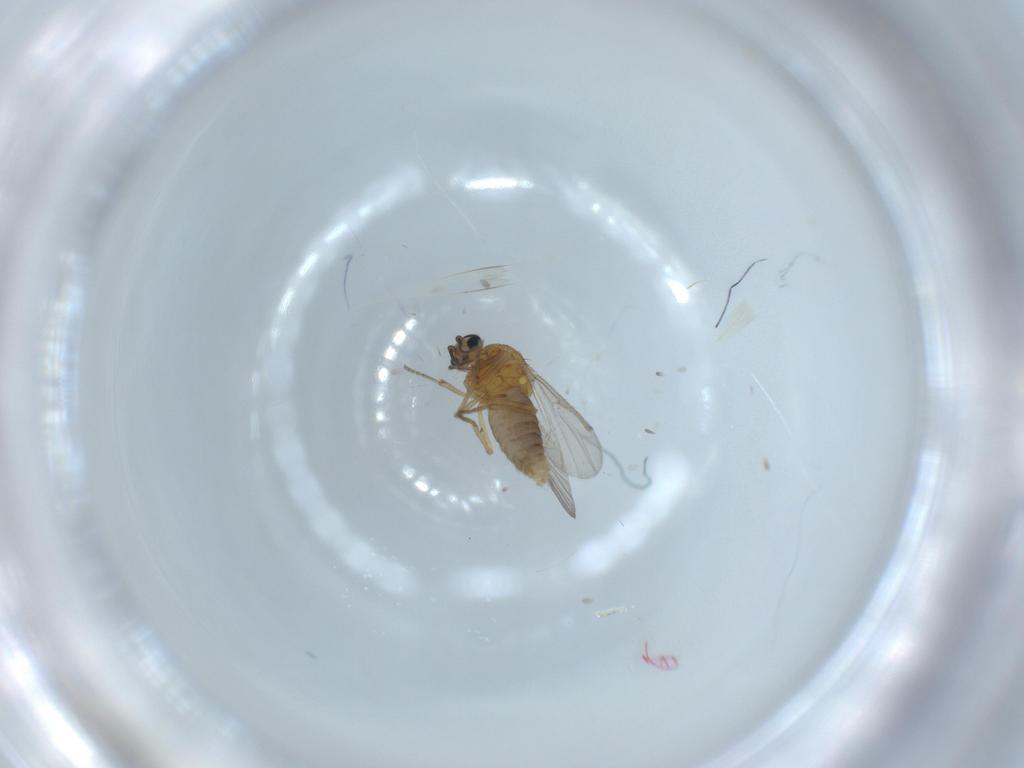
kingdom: Animalia
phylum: Arthropoda
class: Insecta
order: Diptera
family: Ceratopogonidae
